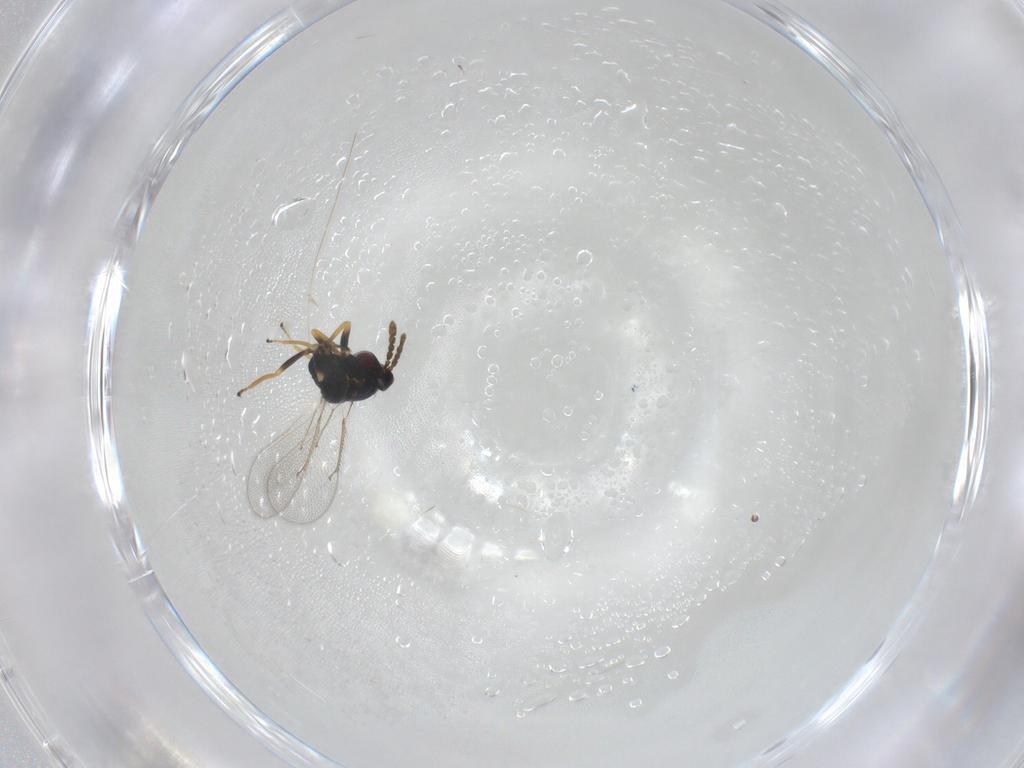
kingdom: Animalia
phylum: Arthropoda
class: Insecta
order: Hymenoptera
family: Eulophidae
